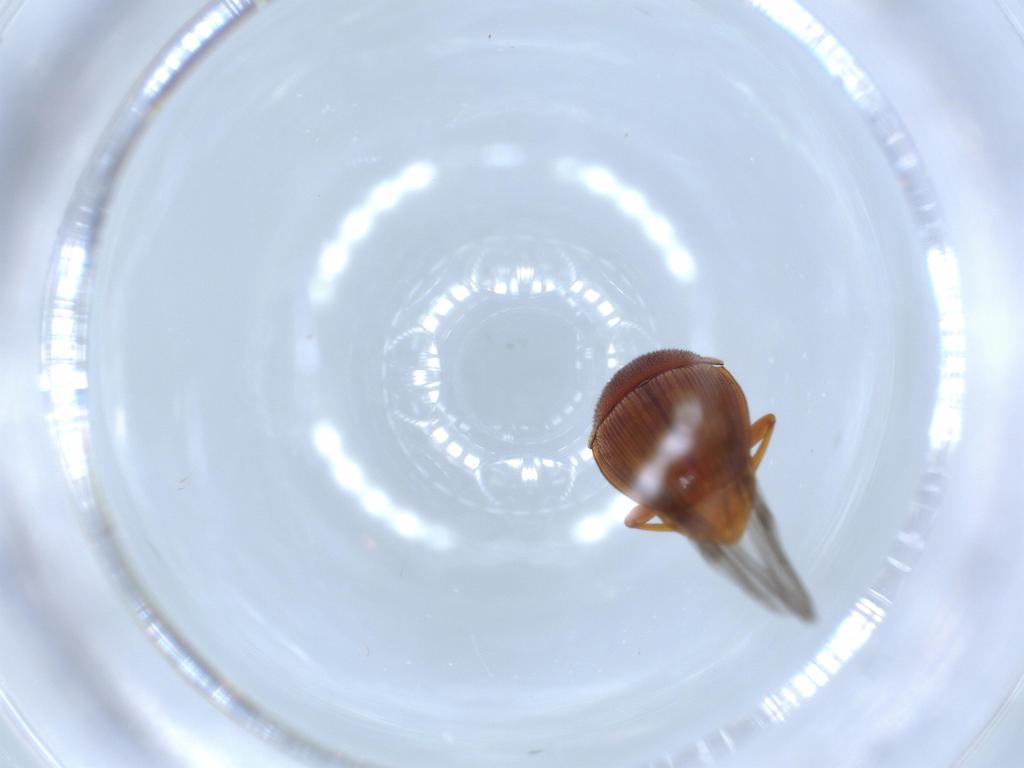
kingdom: Animalia
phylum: Arthropoda
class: Insecta
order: Coleoptera
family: Nitidulidae
